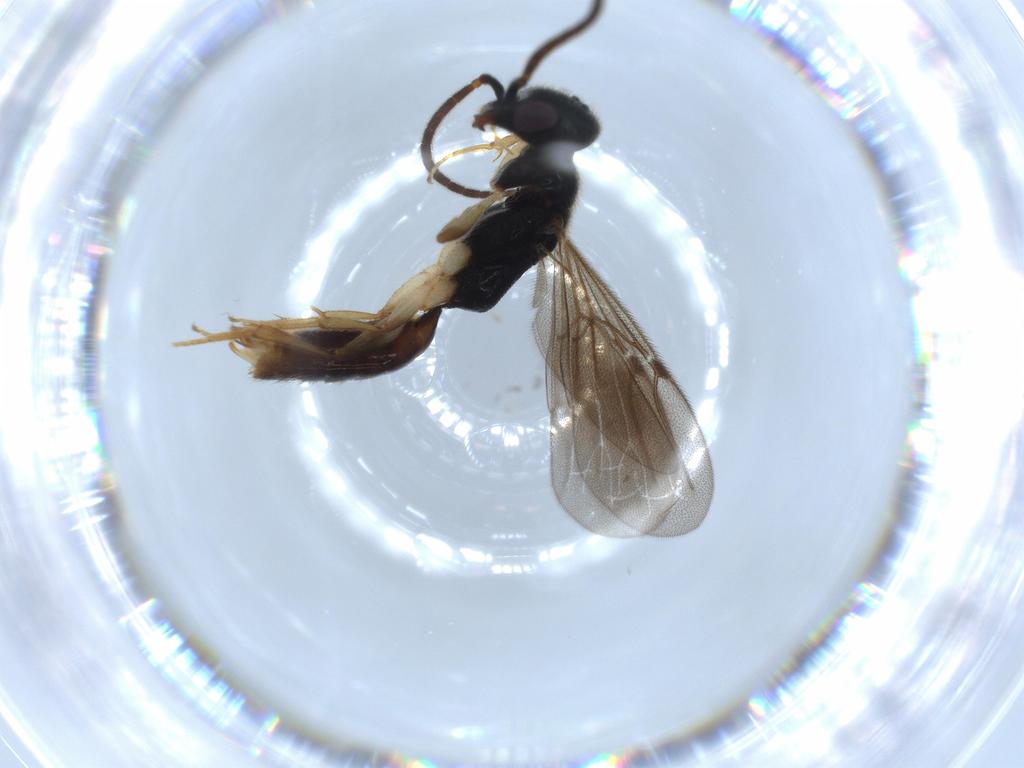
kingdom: Animalia
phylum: Arthropoda
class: Insecta
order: Hymenoptera
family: Bethylidae
